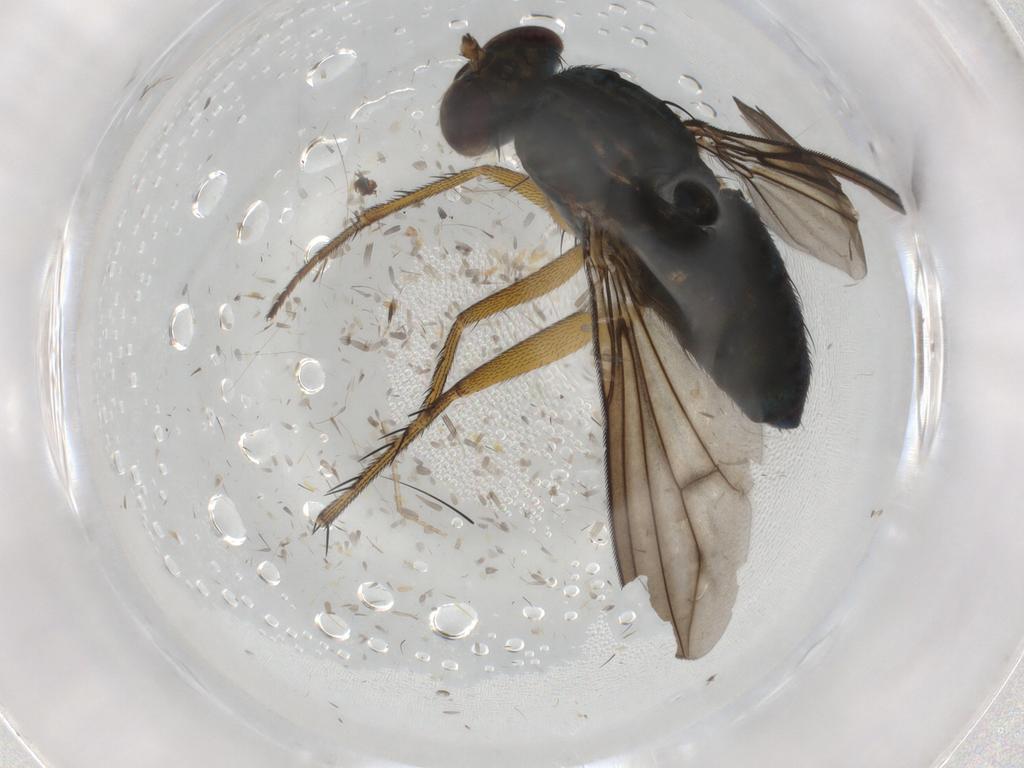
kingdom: Animalia
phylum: Arthropoda
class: Insecta
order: Diptera
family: Dolichopodidae
